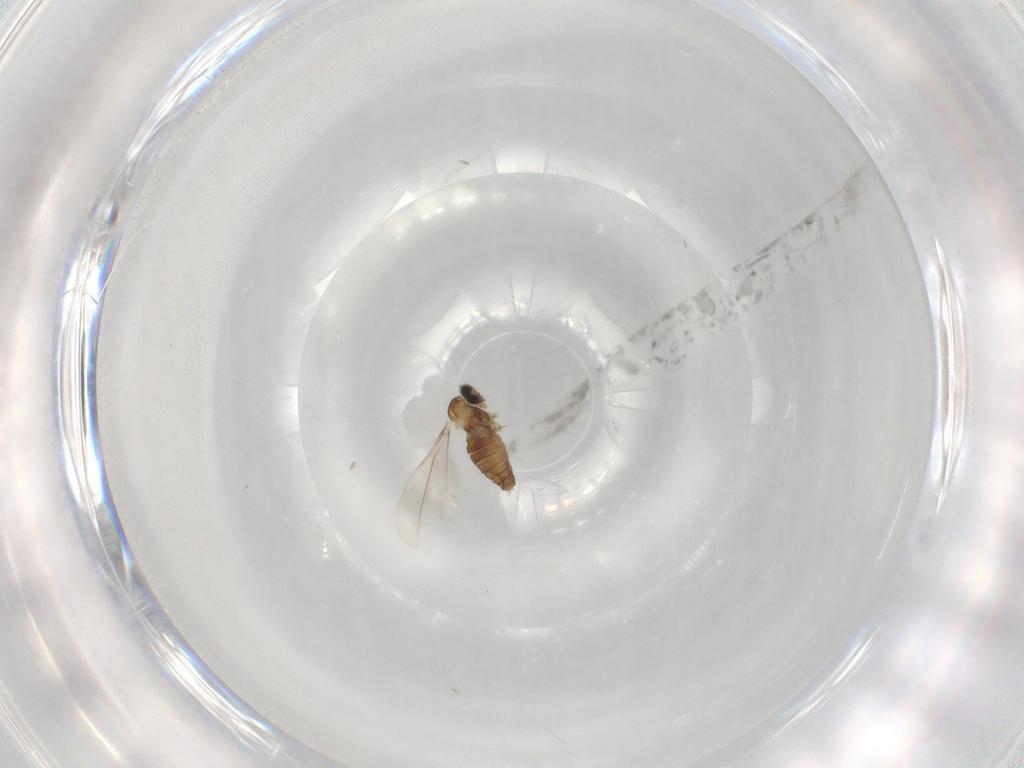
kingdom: Animalia
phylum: Arthropoda
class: Insecta
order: Diptera
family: Cecidomyiidae
